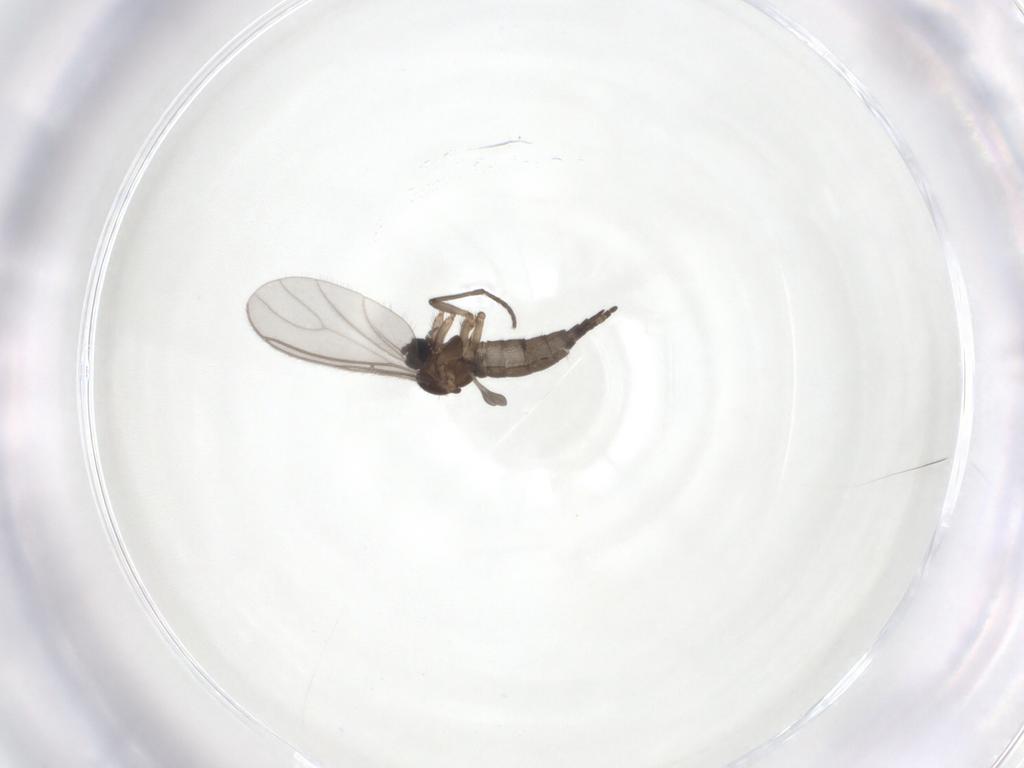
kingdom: Animalia
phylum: Arthropoda
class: Insecta
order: Diptera
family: Sciaridae
